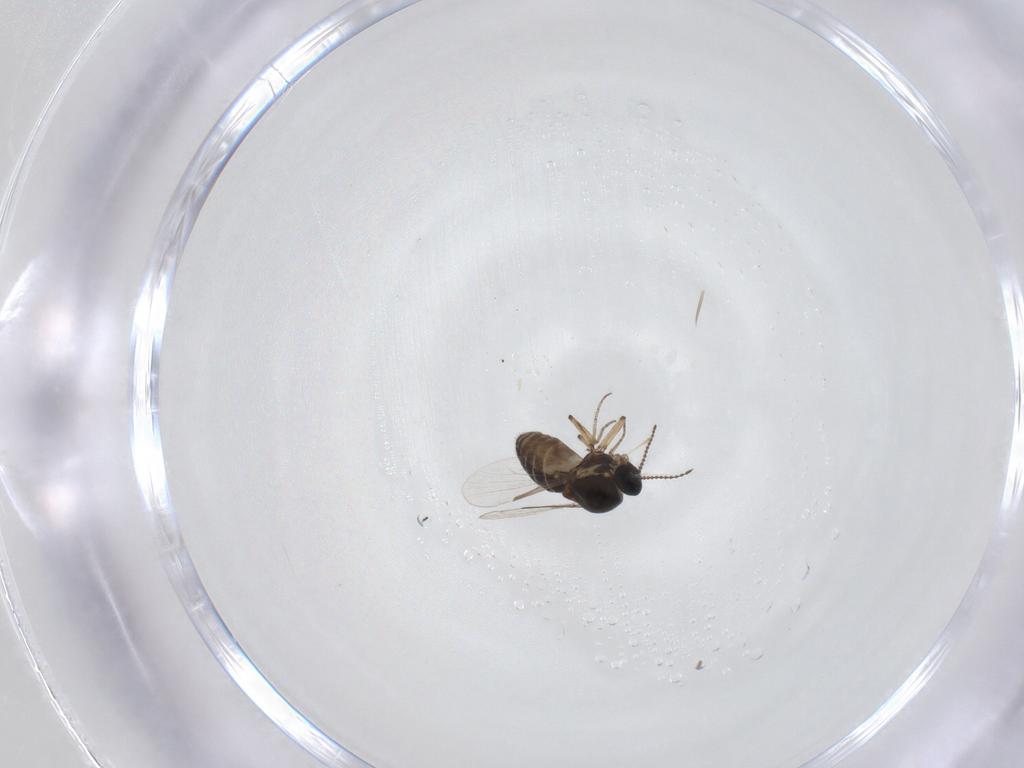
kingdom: Animalia
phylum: Arthropoda
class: Insecta
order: Diptera
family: Ceratopogonidae
